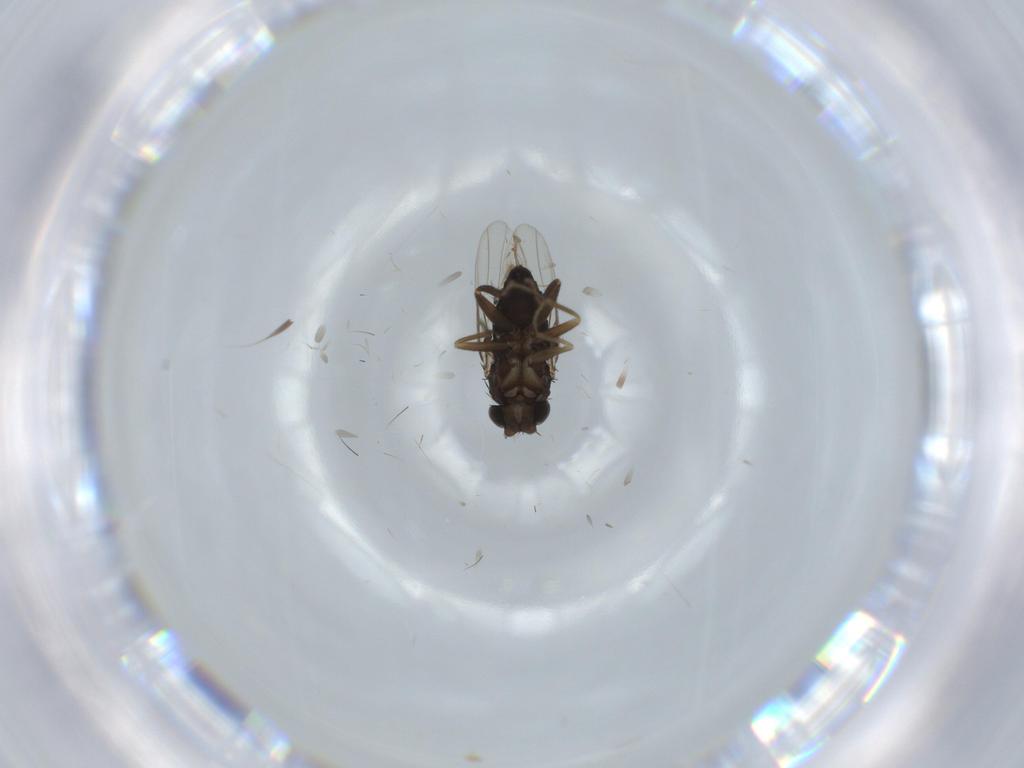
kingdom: Animalia
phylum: Arthropoda
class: Insecta
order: Diptera
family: Phoridae
